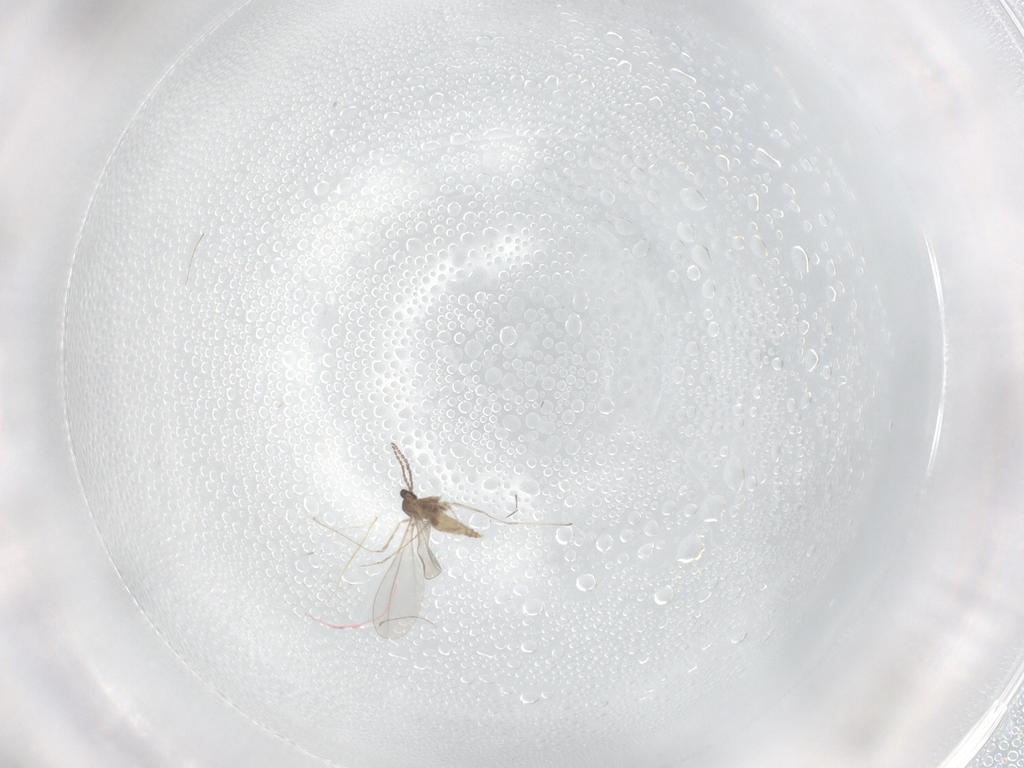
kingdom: Animalia
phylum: Arthropoda
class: Insecta
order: Diptera
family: Cecidomyiidae
